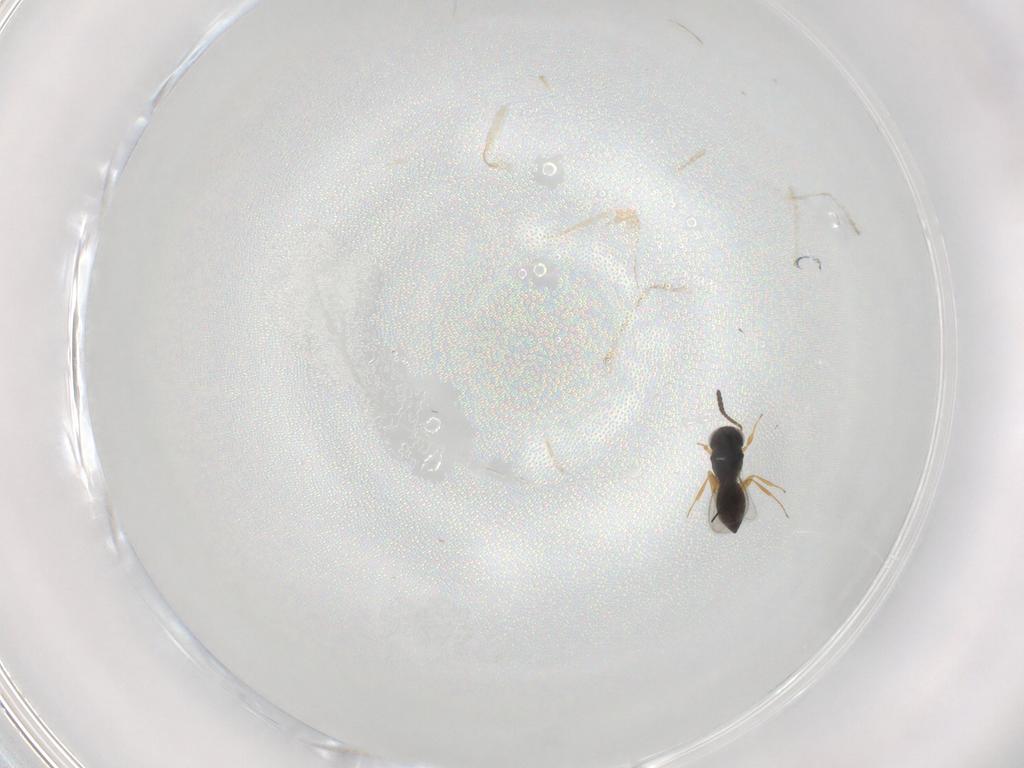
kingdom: Animalia
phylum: Arthropoda
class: Insecta
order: Hymenoptera
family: Scelionidae
